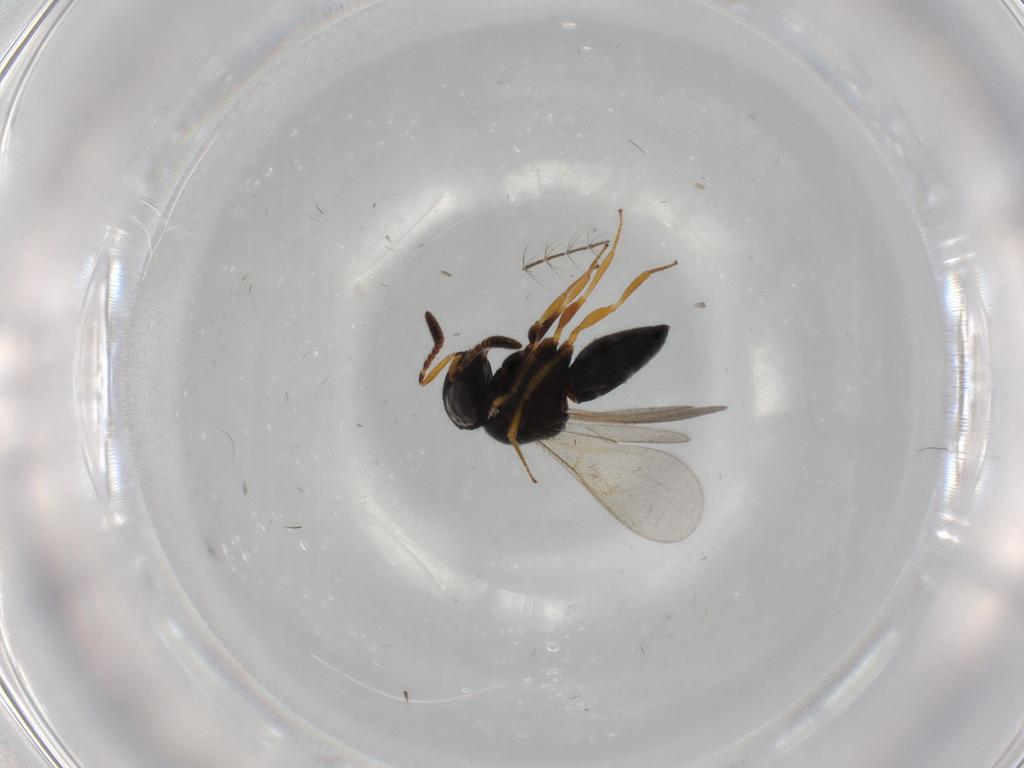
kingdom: Animalia
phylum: Arthropoda
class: Insecta
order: Hymenoptera
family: Scelionidae
